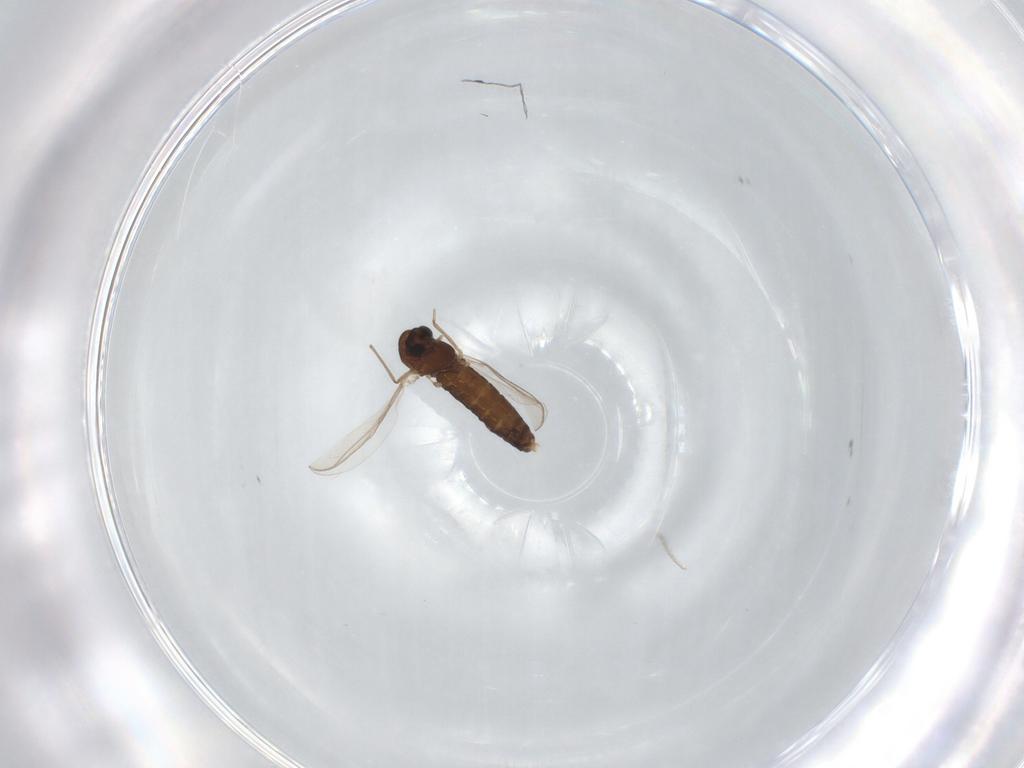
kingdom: Animalia
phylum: Arthropoda
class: Insecta
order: Diptera
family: Chironomidae
